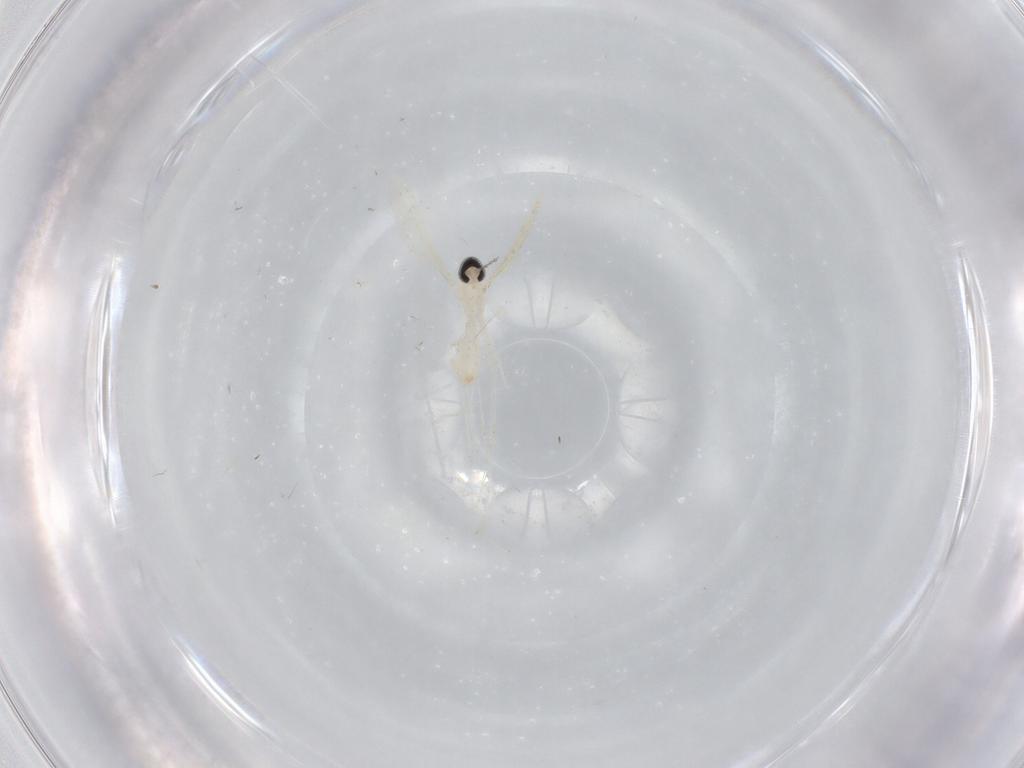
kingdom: Animalia
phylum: Arthropoda
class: Insecta
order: Diptera
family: Cecidomyiidae
